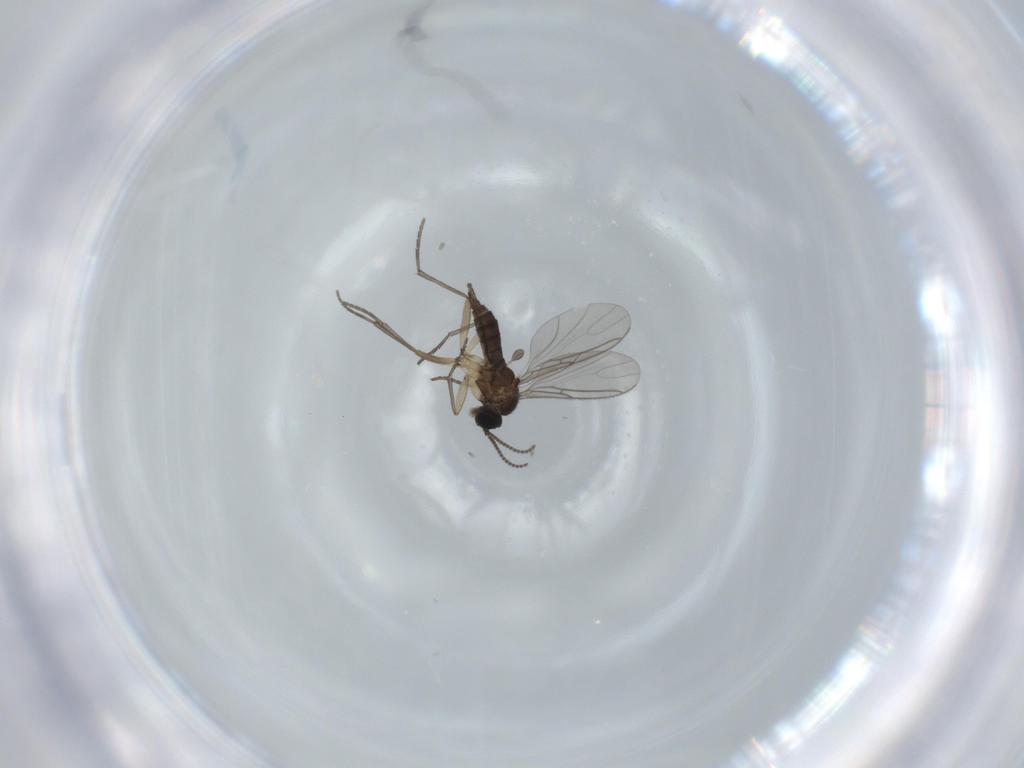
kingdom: Animalia
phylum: Arthropoda
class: Insecta
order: Diptera
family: Sciaridae
